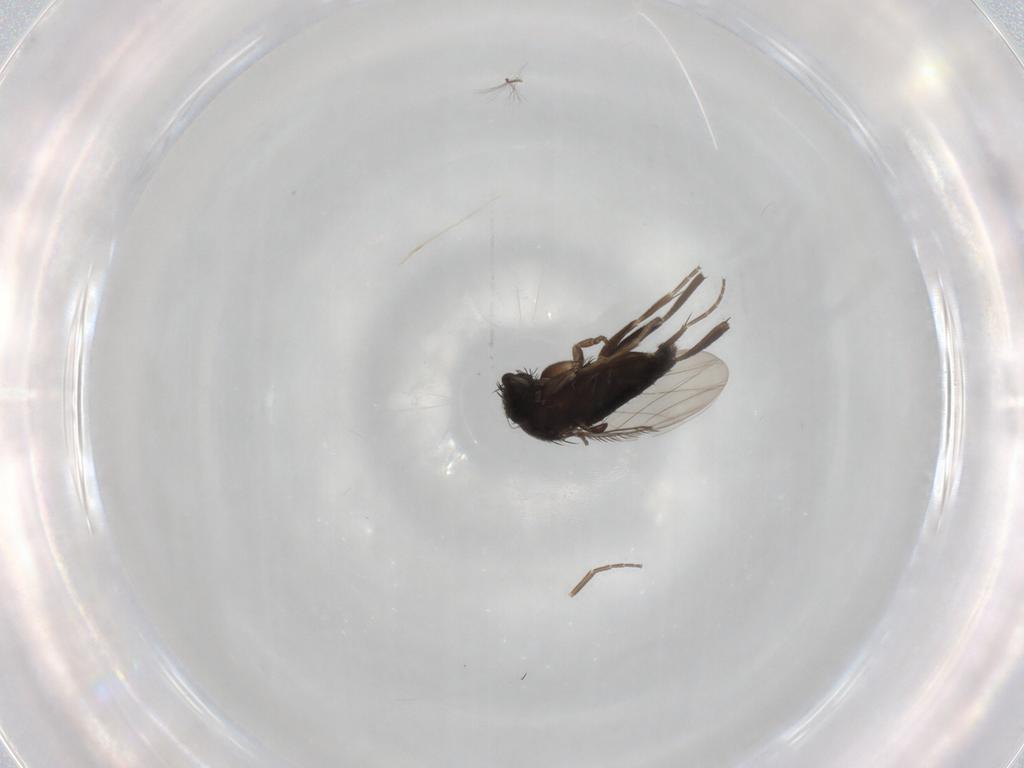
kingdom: Animalia
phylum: Arthropoda
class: Insecta
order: Diptera
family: Phoridae
